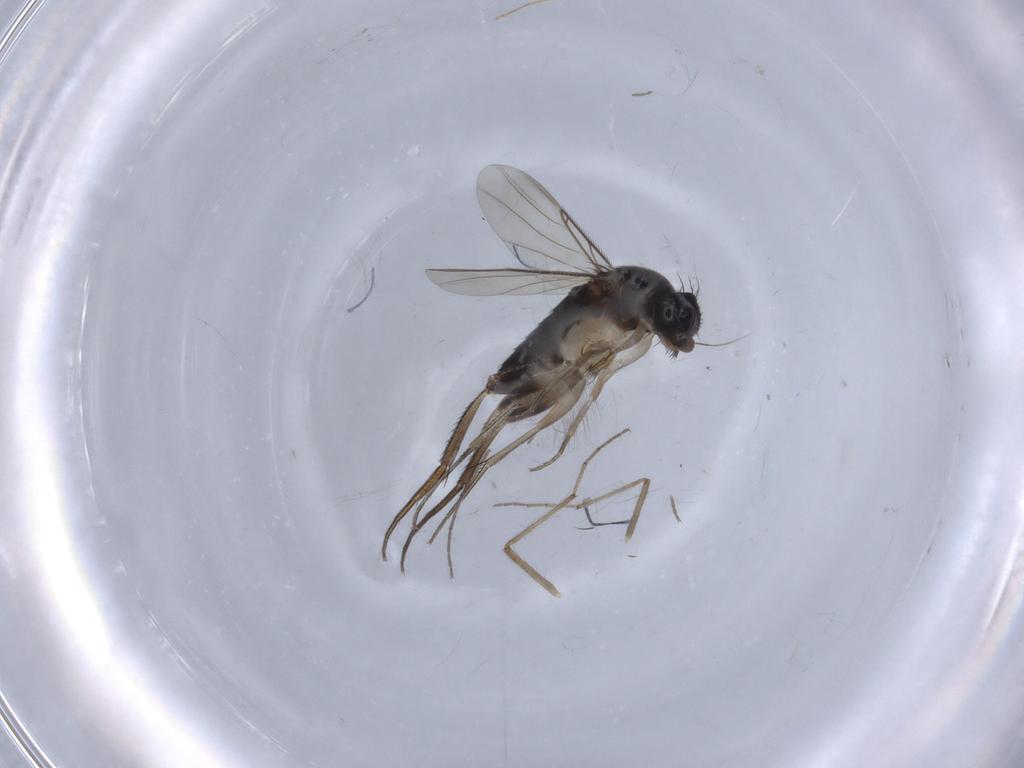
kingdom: Animalia
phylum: Arthropoda
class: Insecta
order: Diptera
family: Phoridae
